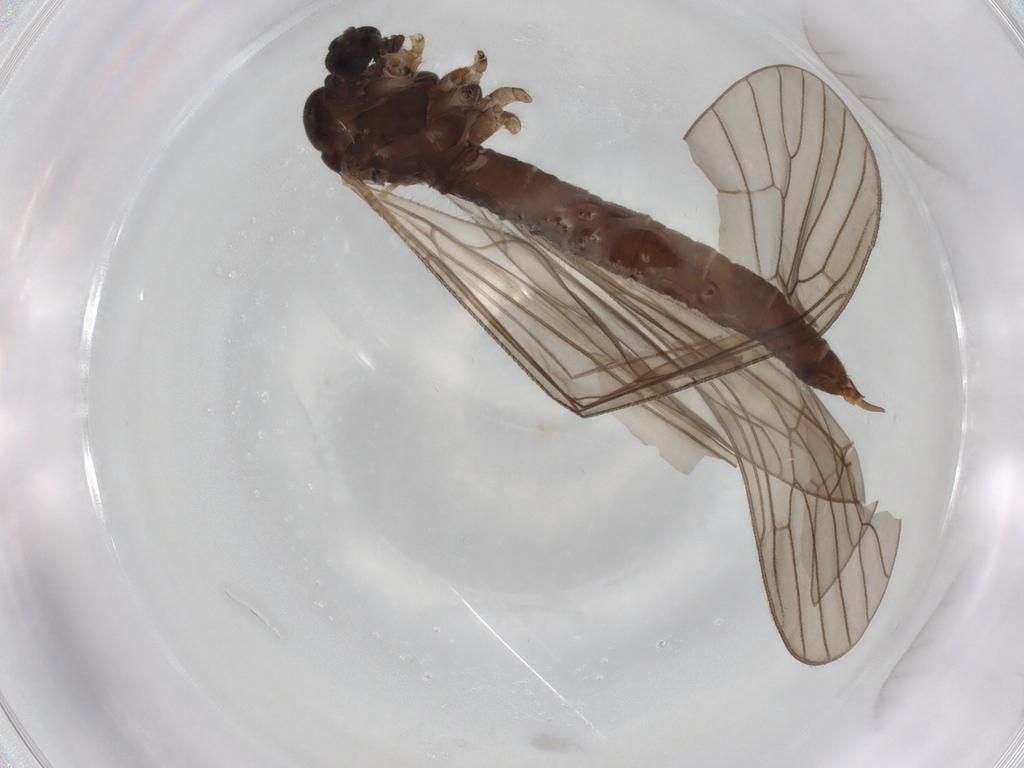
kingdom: Animalia
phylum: Arthropoda
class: Insecta
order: Diptera
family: Trichoceridae
